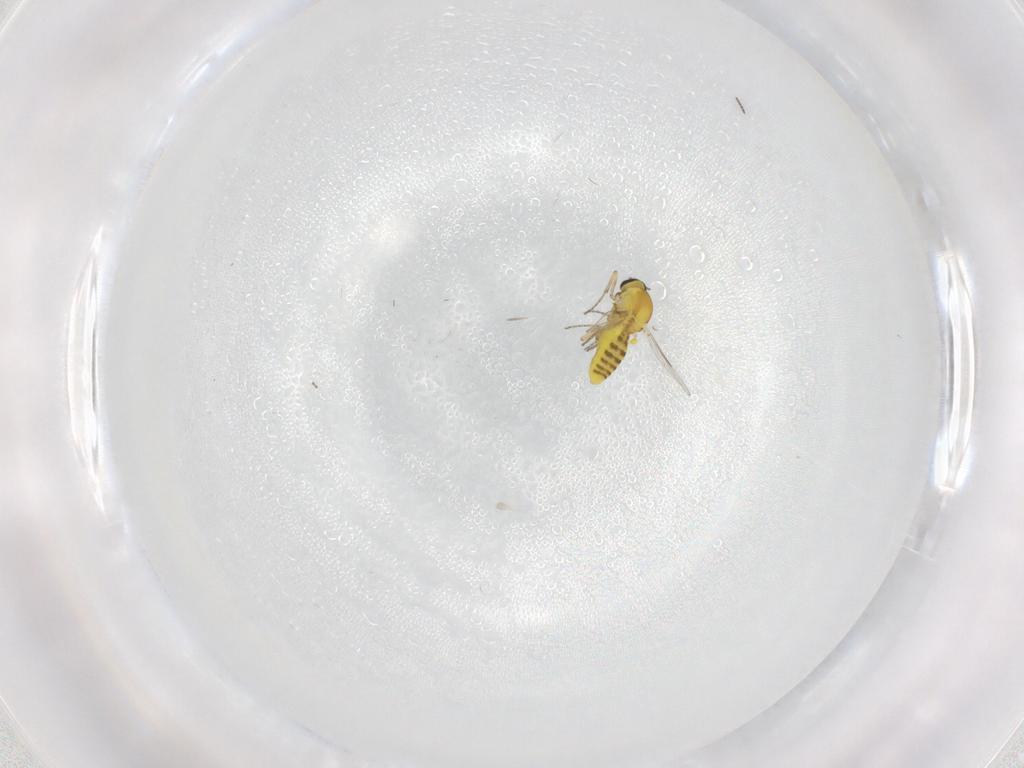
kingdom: Animalia
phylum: Arthropoda
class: Insecta
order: Diptera
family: Ceratopogonidae
